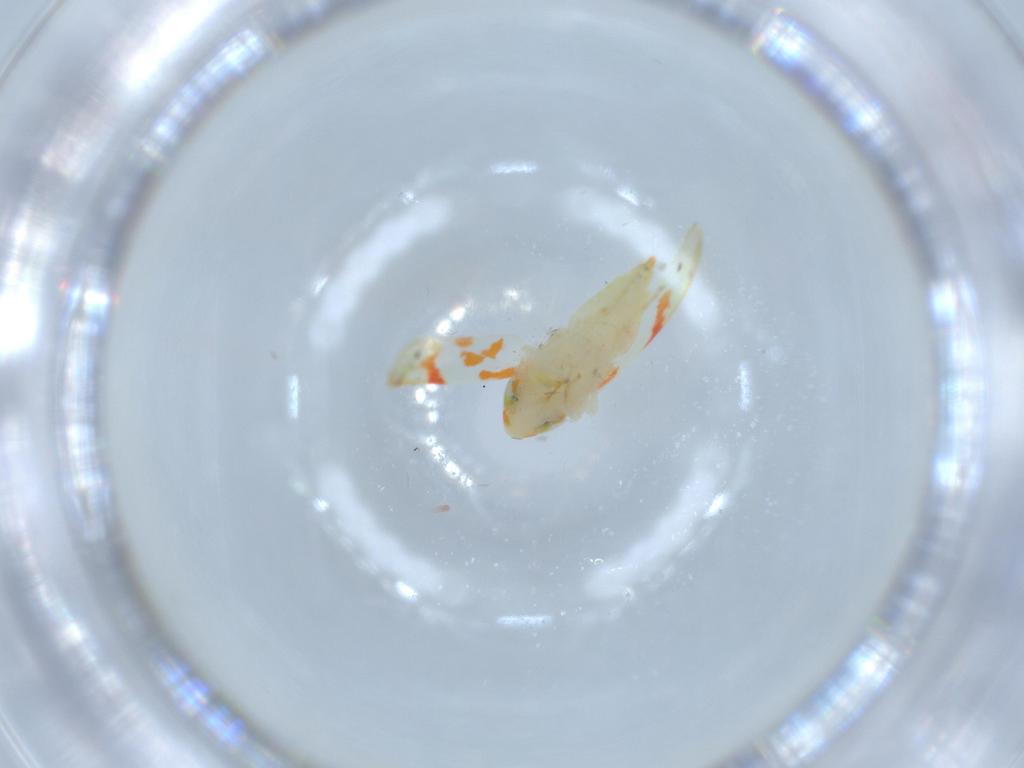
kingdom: Animalia
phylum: Arthropoda
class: Insecta
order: Hemiptera
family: Cicadellidae
